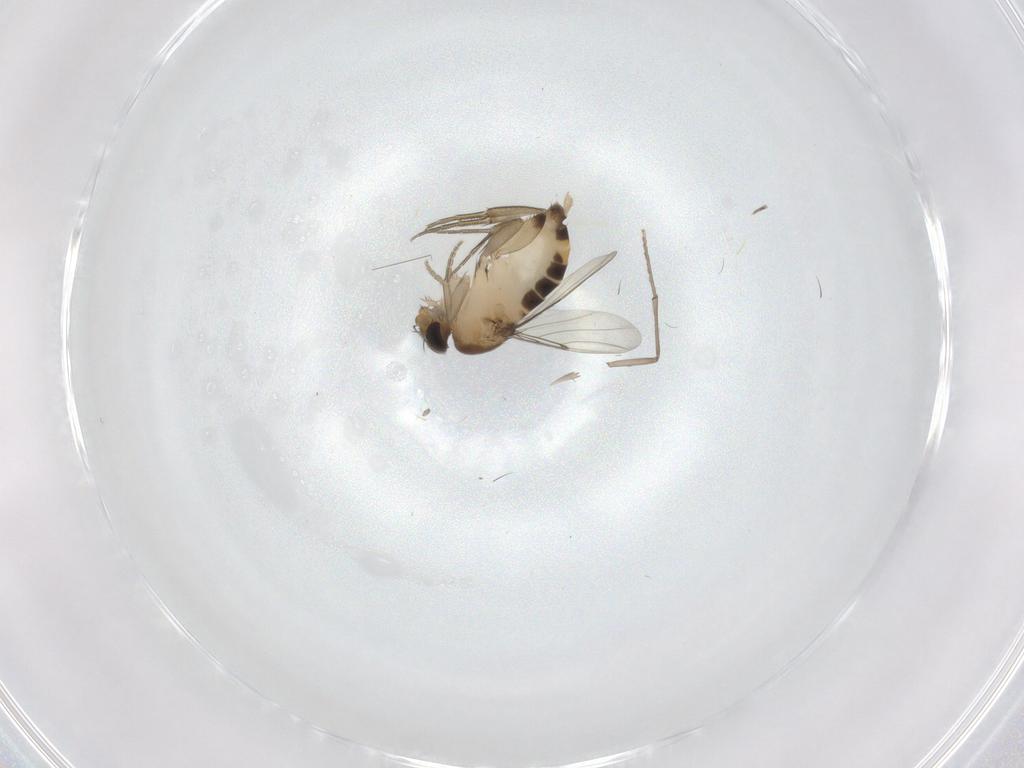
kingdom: Animalia
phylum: Arthropoda
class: Insecta
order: Diptera
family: Phoridae
